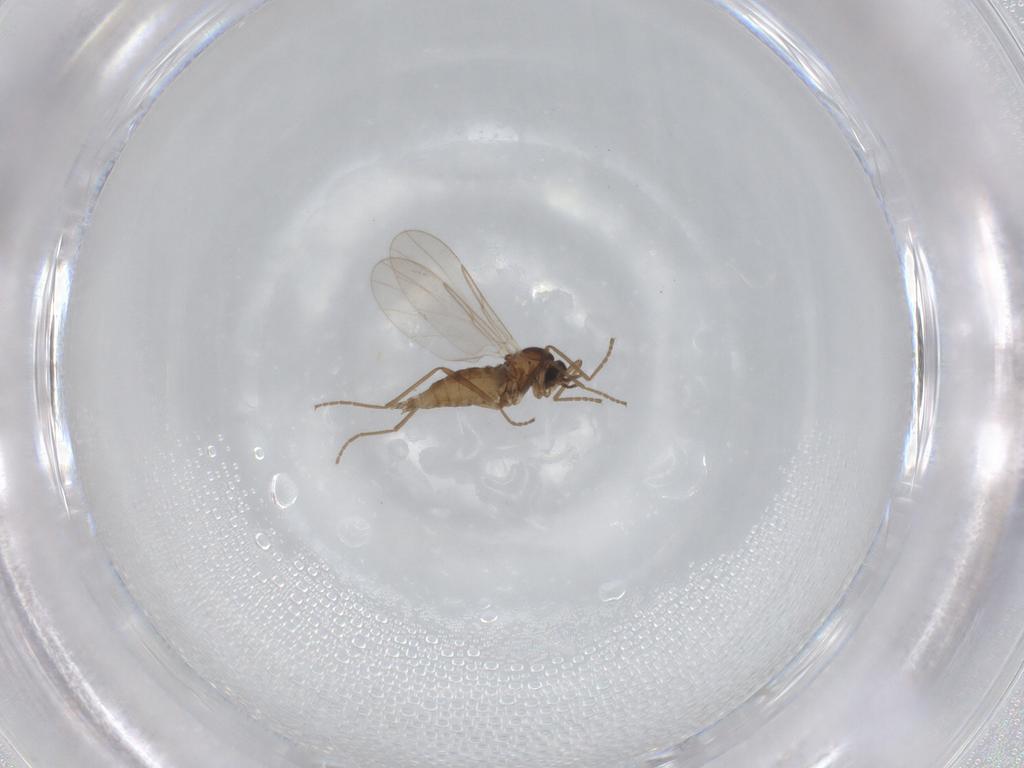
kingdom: Animalia
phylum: Arthropoda
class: Insecta
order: Diptera
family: Cecidomyiidae
